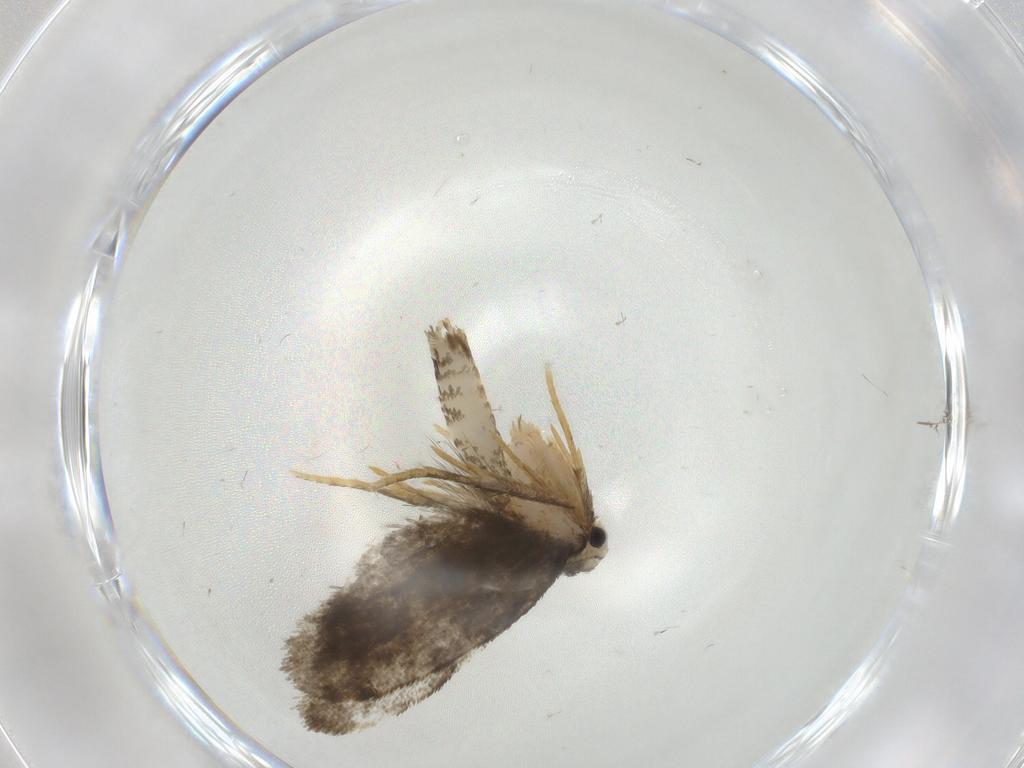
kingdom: Animalia
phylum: Arthropoda
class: Insecta
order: Lepidoptera
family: Psychidae
